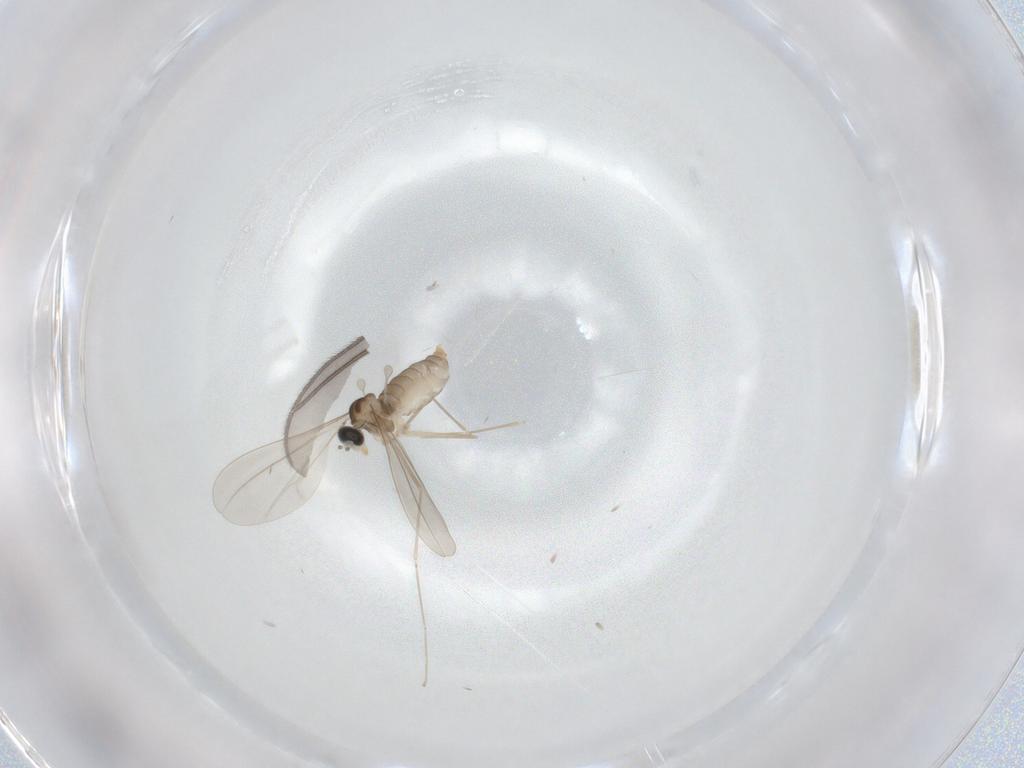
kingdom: Animalia
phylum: Arthropoda
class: Insecta
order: Diptera
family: Cecidomyiidae
